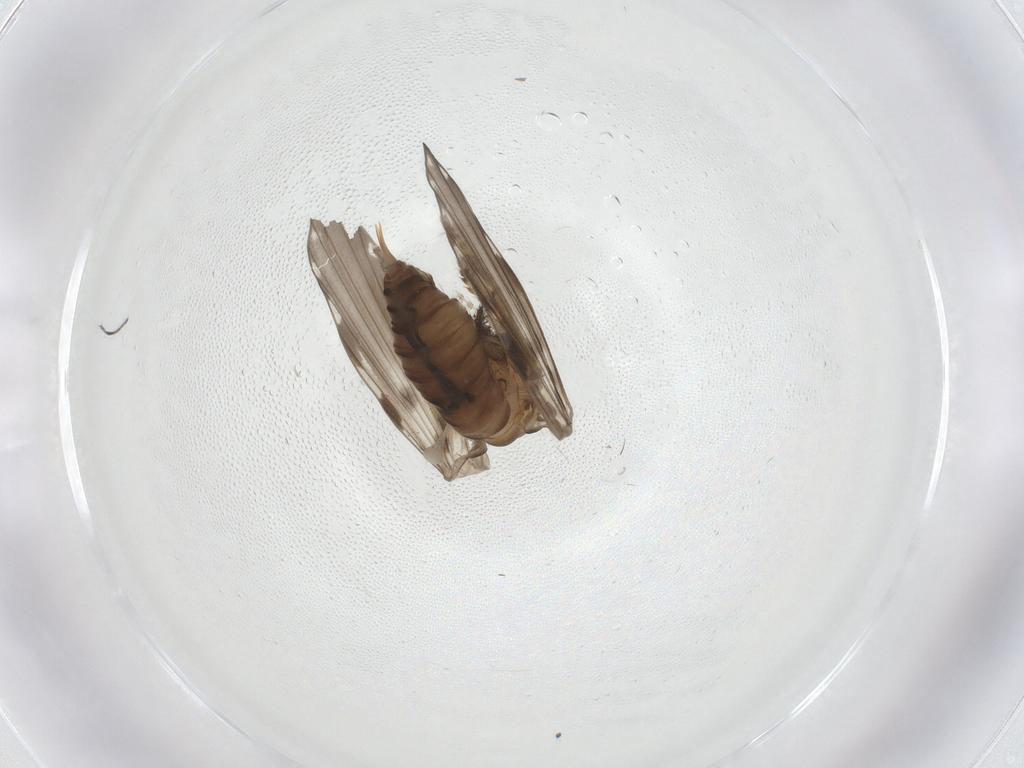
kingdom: Animalia
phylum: Arthropoda
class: Insecta
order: Diptera
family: Psychodidae
